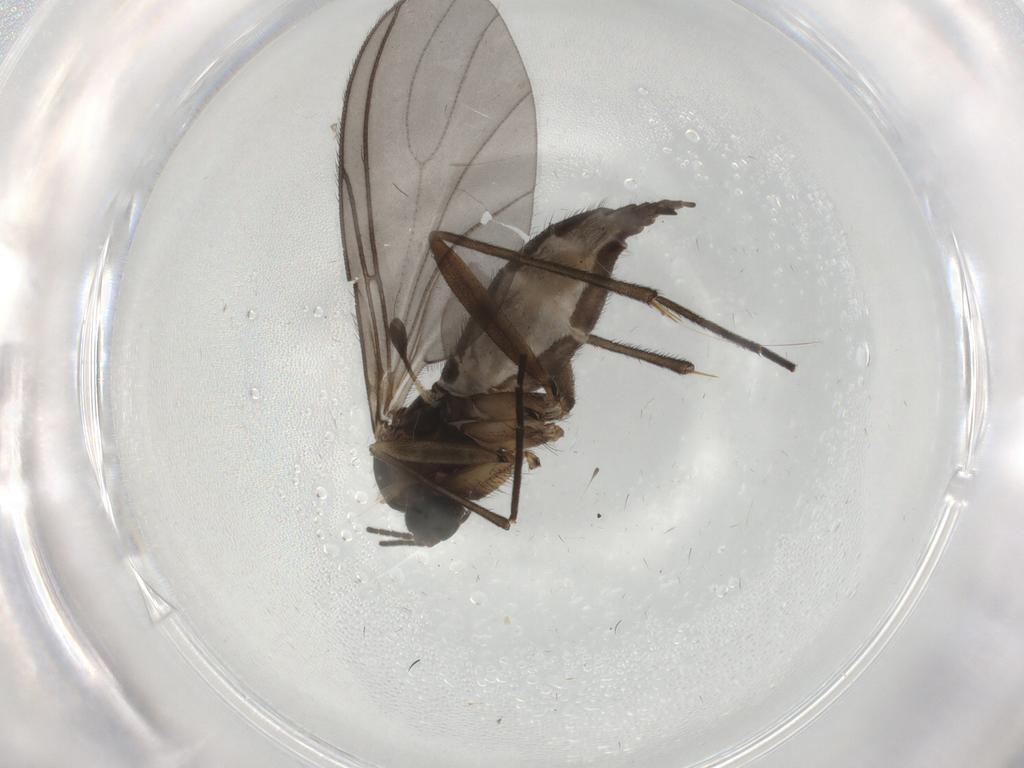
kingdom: Animalia
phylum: Arthropoda
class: Insecta
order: Diptera
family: Sciaridae
